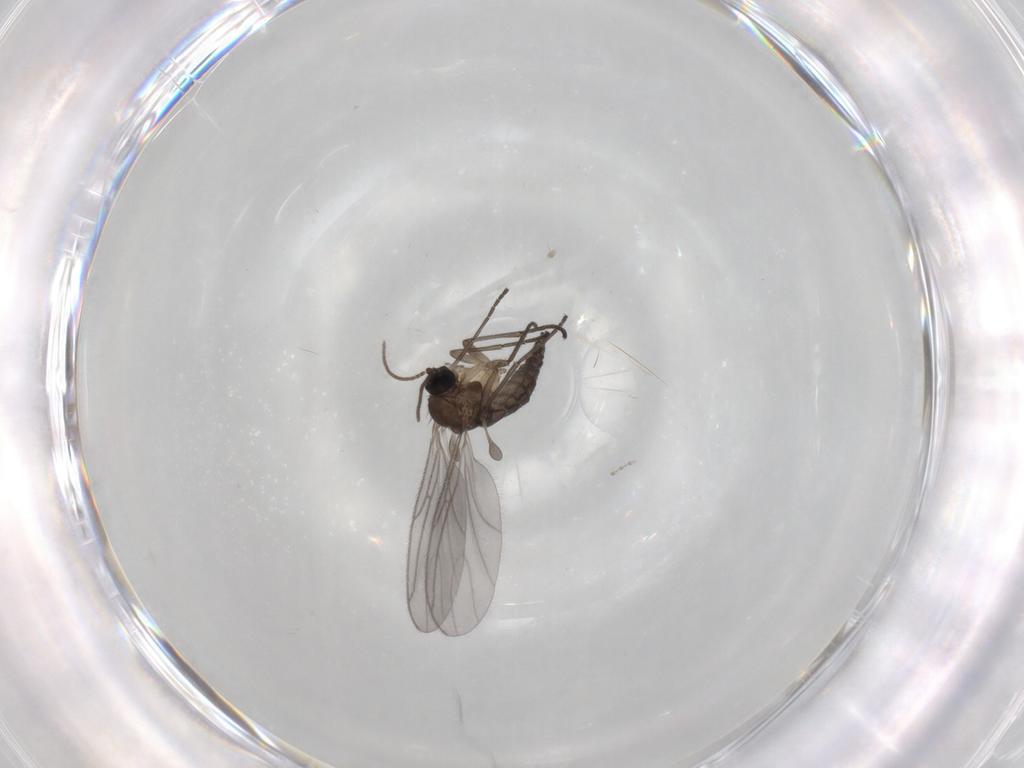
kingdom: Animalia
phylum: Arthropoda
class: Insecta
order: Diptera
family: Sciaridae
